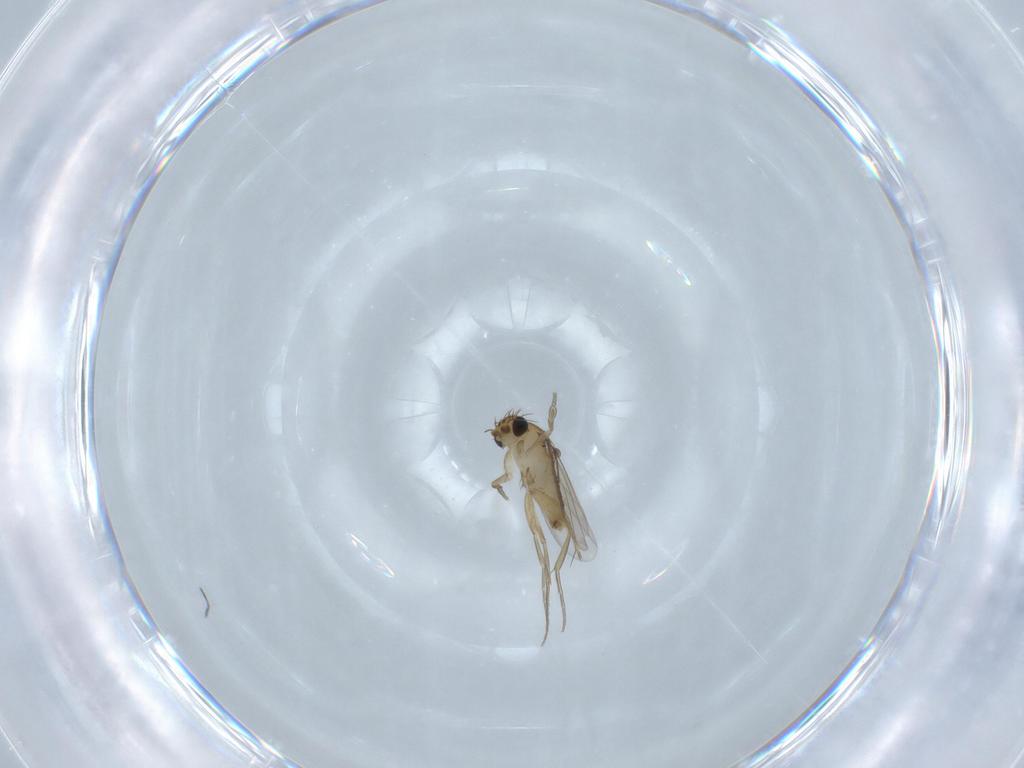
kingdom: Animalia
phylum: Arthropoda
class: Insecta
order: Diptera
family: Phoridae
